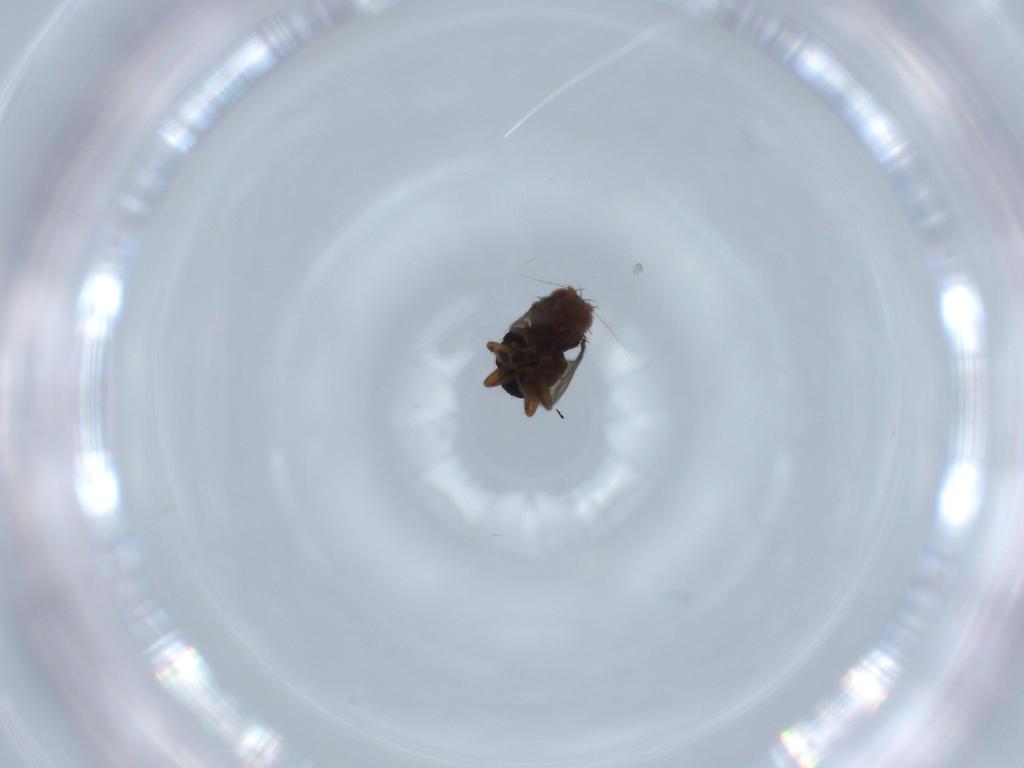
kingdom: Animalia
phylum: Arthropoda
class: Insecta
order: Diptera
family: Sphaeroceridae
